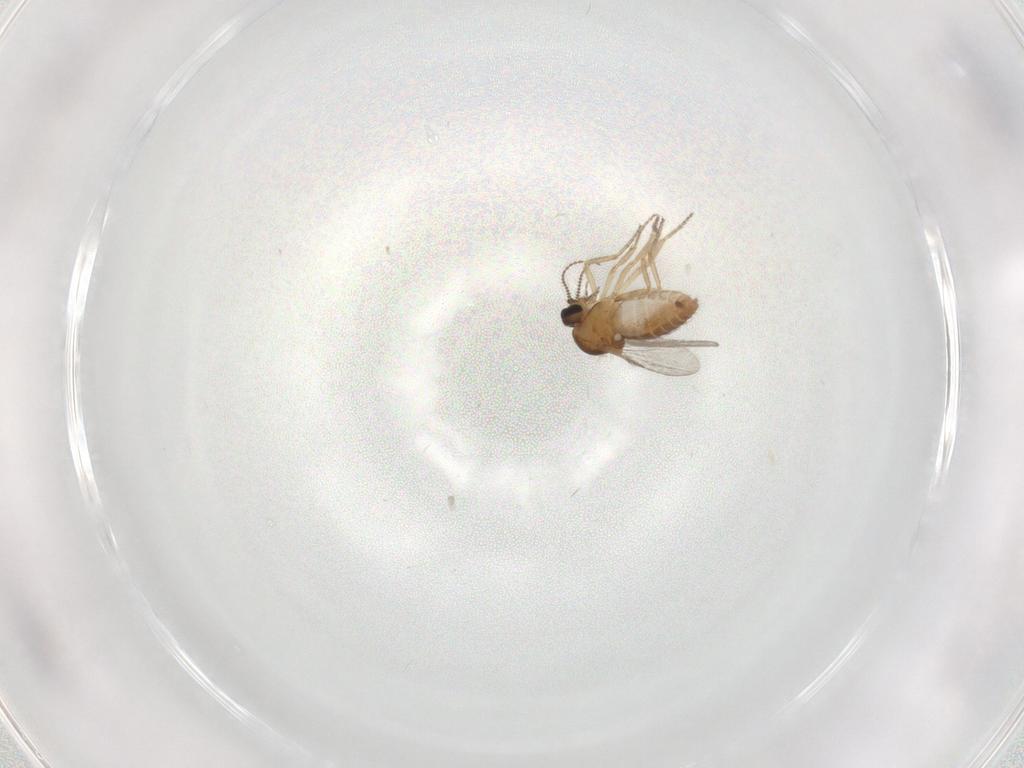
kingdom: Animalia
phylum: Arthropoda
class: Insecta
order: Diptera
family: Ceratopogonidae
